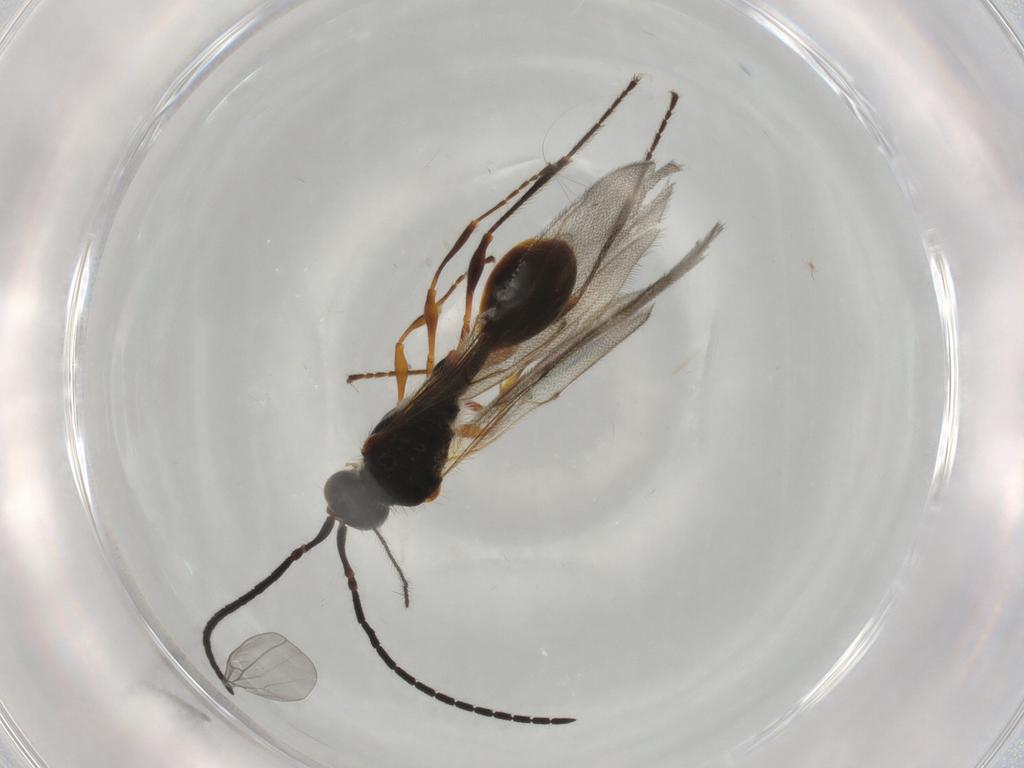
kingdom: Animalia
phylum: Arthropoda
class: Insecta
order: Hymenoptera
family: Diapriidae
